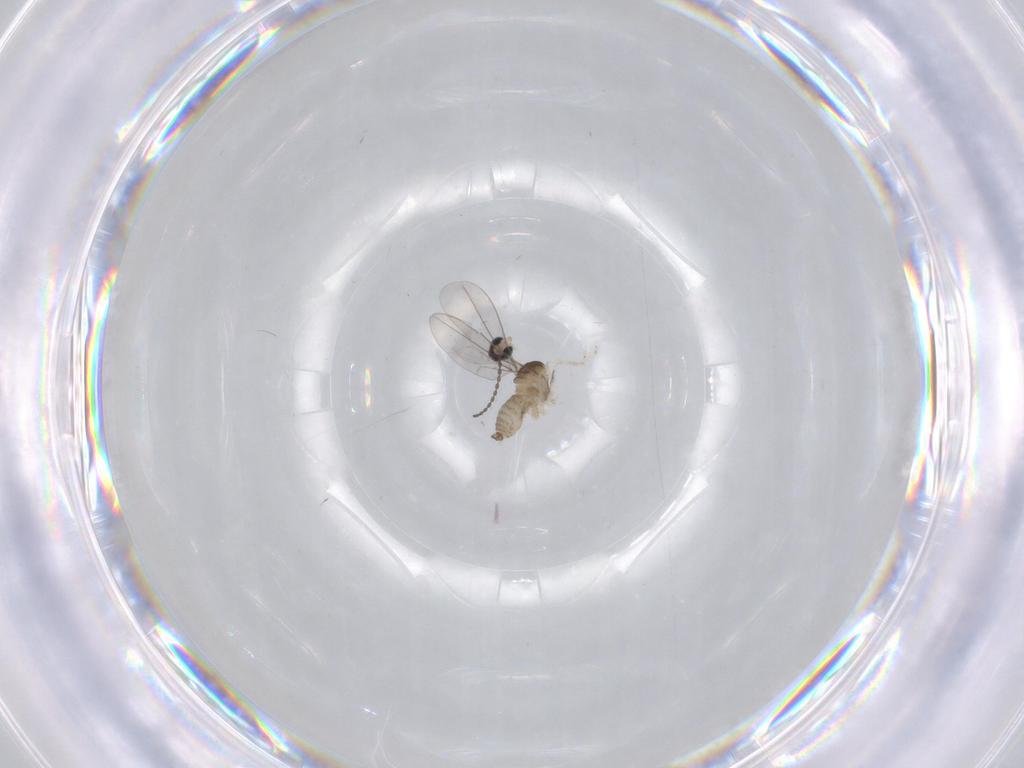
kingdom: Animalia
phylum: Arthropoda
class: Insecta
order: Diptera
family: Cecidomyiidae
